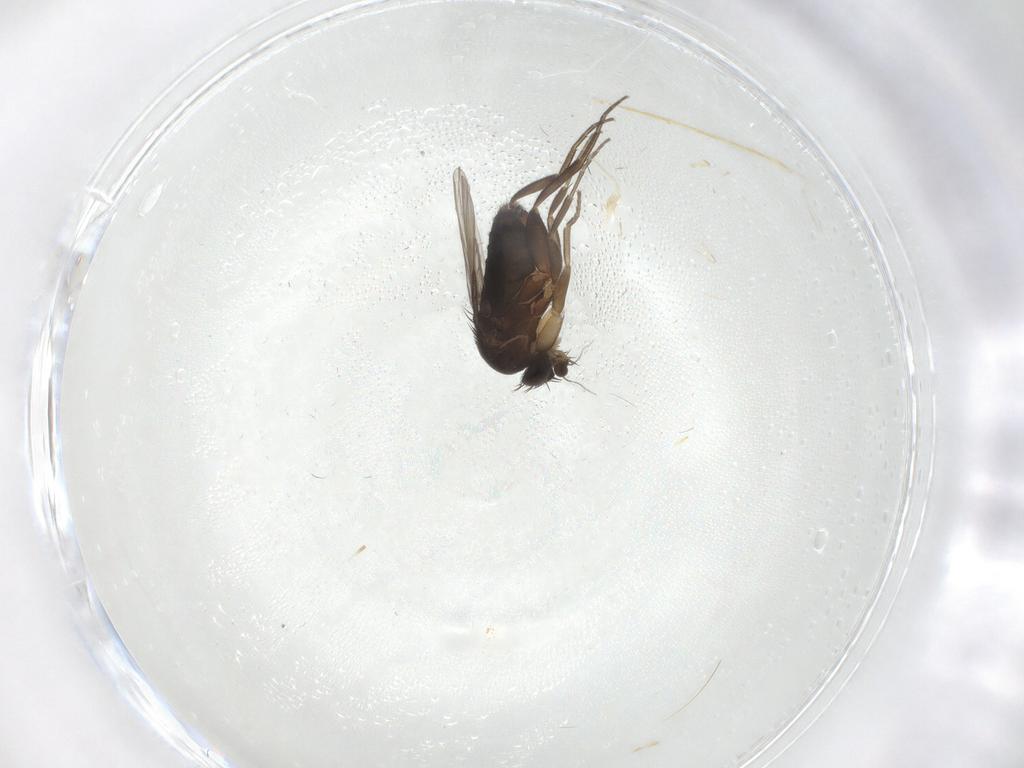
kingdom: Animalia
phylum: Arthropoda
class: Insecta
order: Diptera
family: Phoridae
